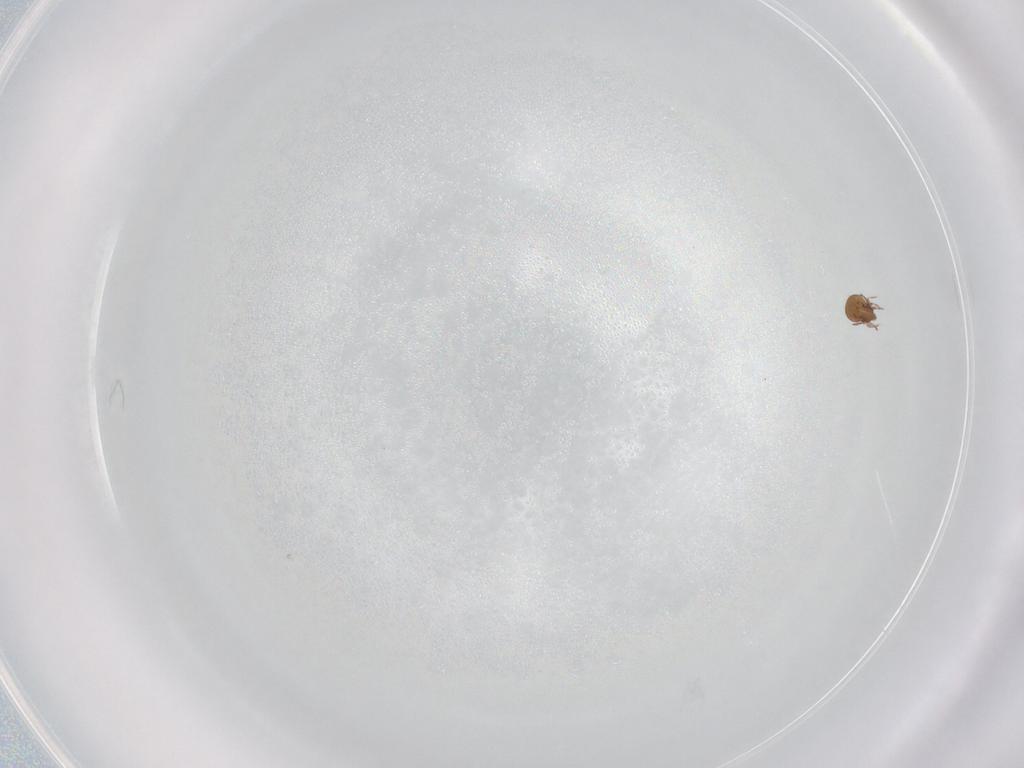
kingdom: Animalia
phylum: Arthropoda
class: Arachnida
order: Sarcoptiformes
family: Oribatulidae
